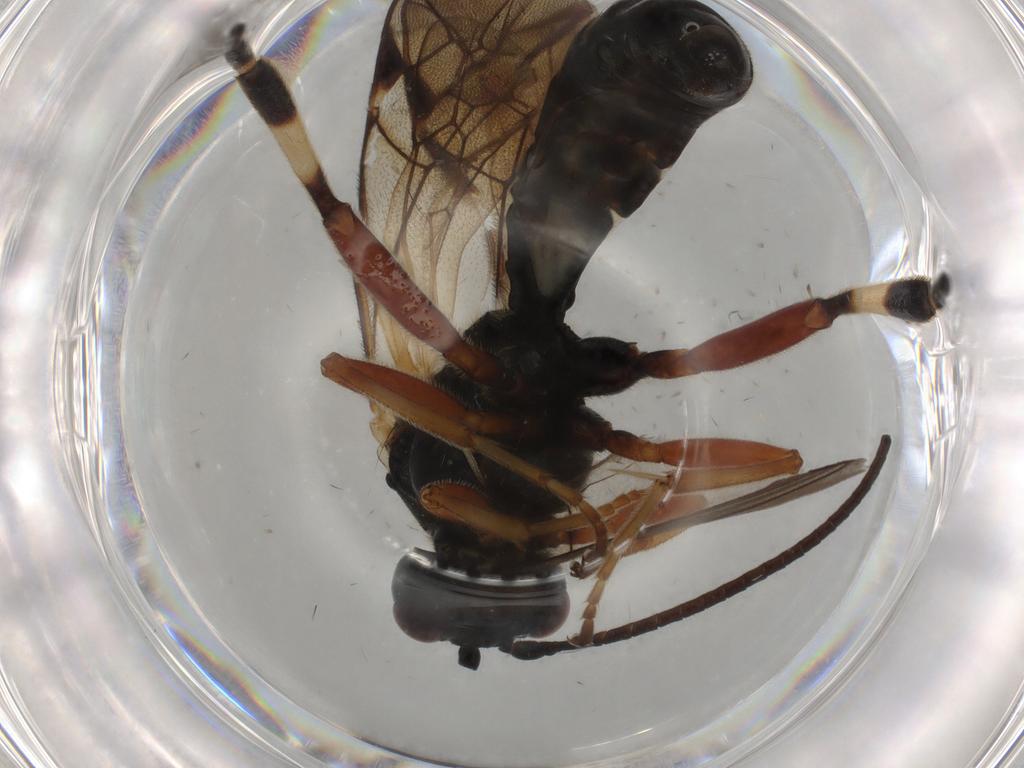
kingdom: Animalia
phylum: Arthropoda
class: Insecta
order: Hymenoptera
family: Ichneumonidae
